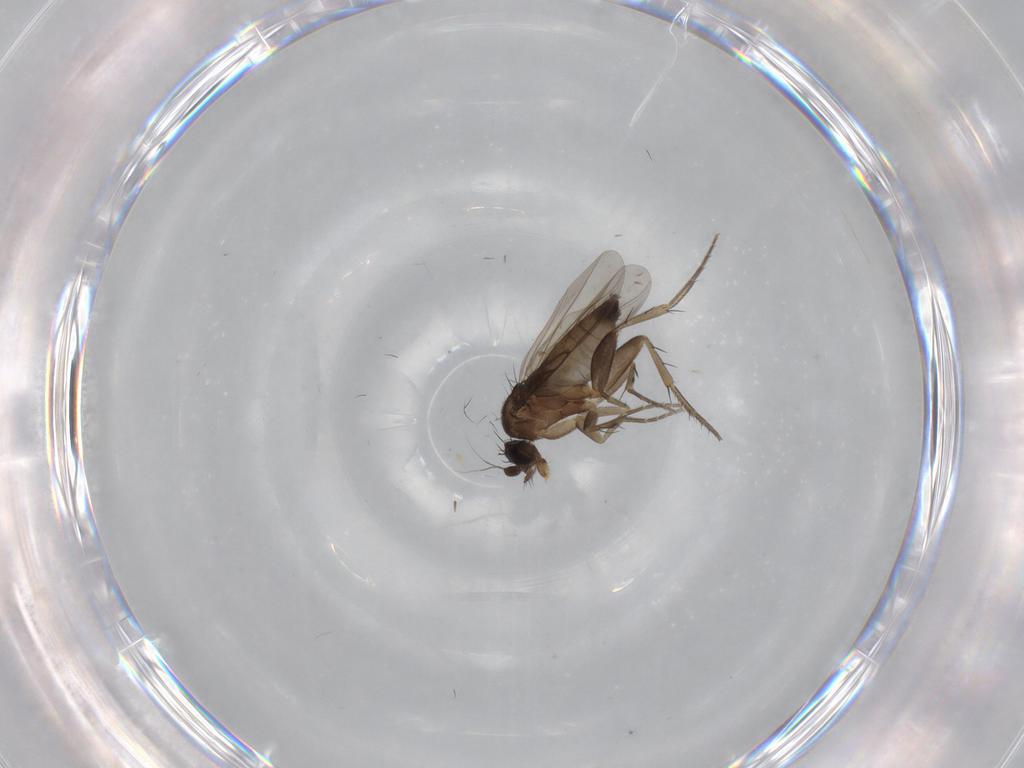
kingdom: Animalia
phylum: Arthropoda
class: Insecta
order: Diptera
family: Phoridae
